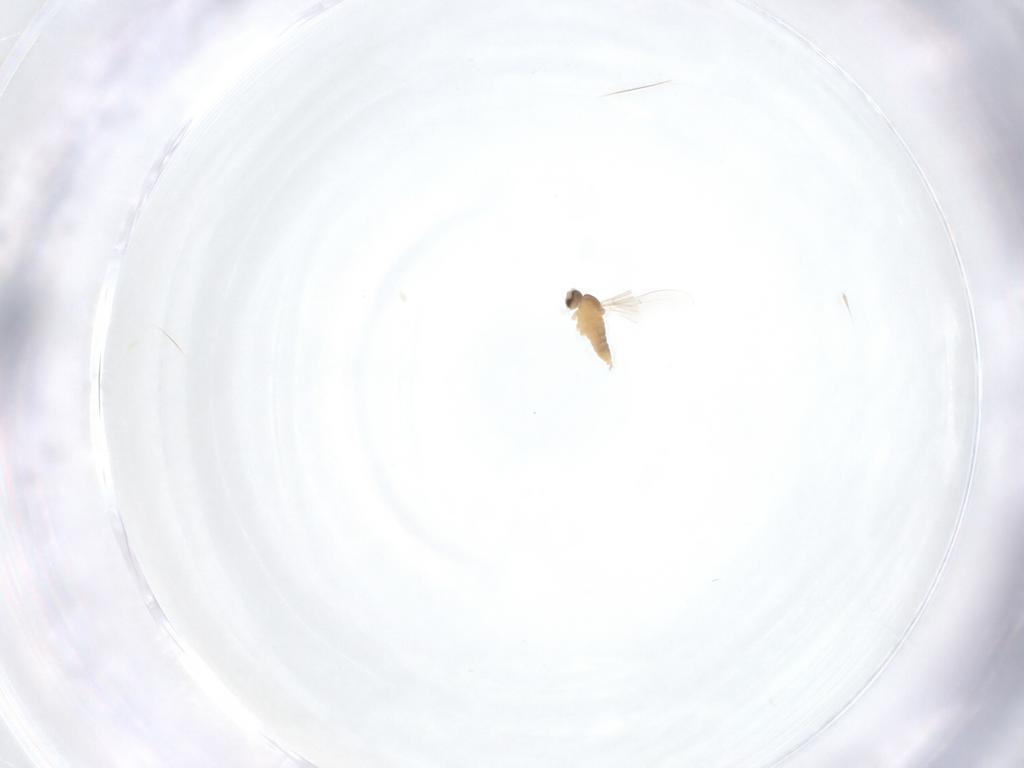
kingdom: Animalia
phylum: Arthropoda
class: Insecta
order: Diptera
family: Cecidomyiidae
